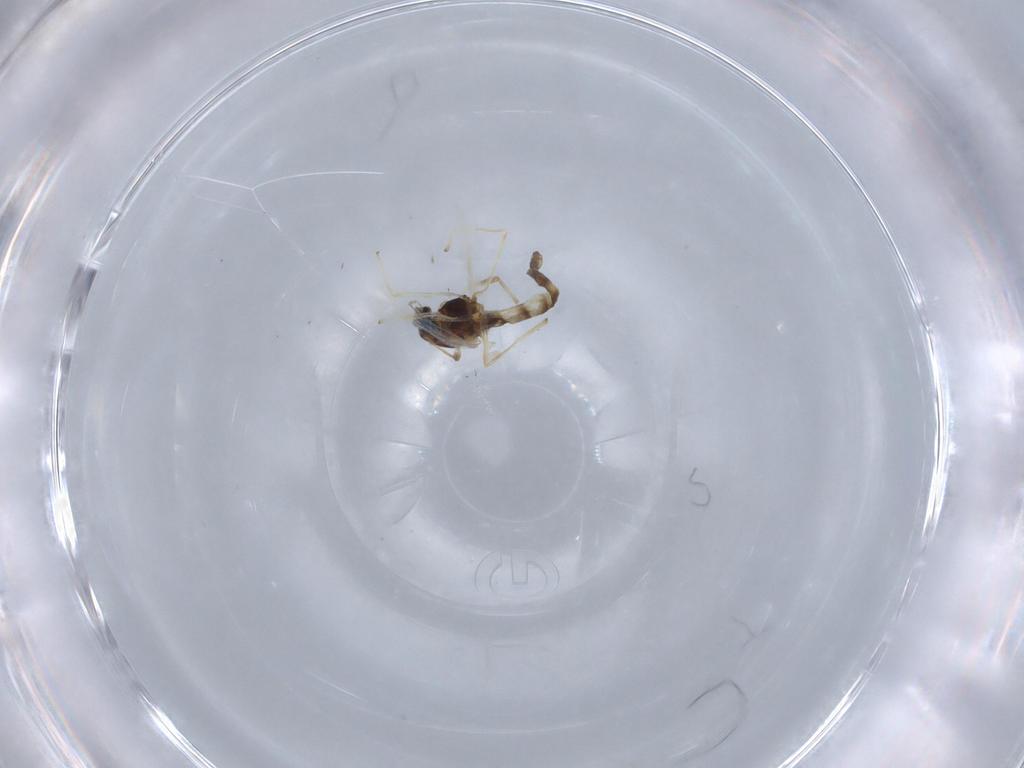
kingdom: Animalia
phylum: Arthropoda
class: Insecta
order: Diptera
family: Chironomidae
